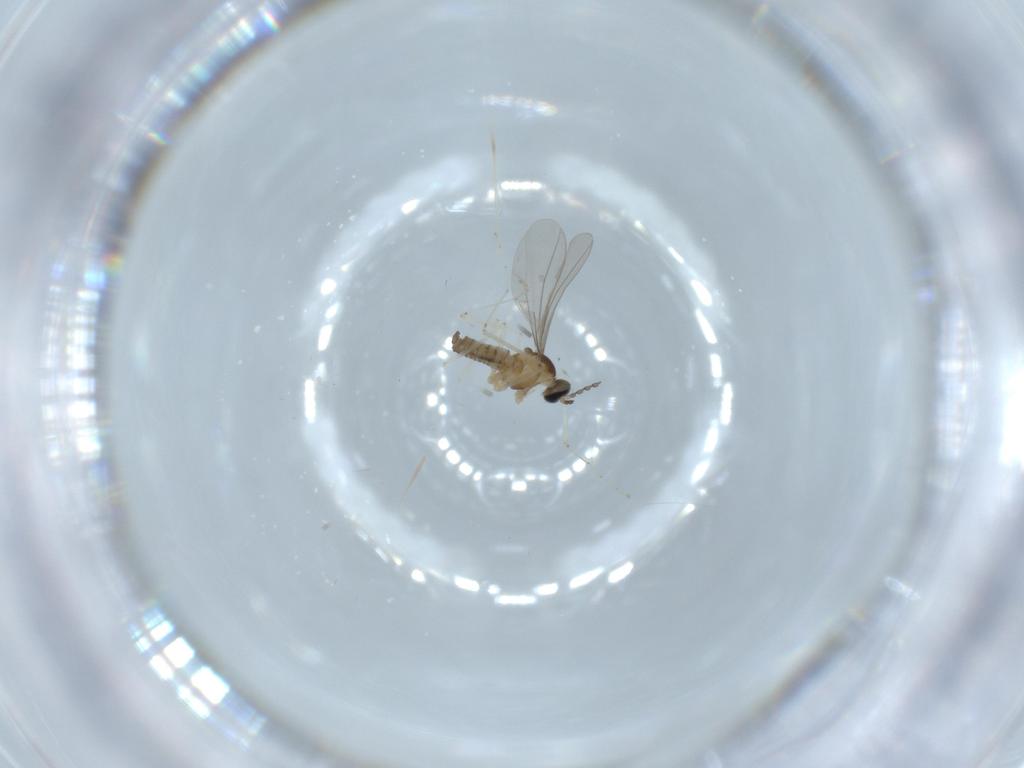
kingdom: Animalia
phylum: Arthropoda
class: Insecta
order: Diptera
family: Cecidomyiidae
